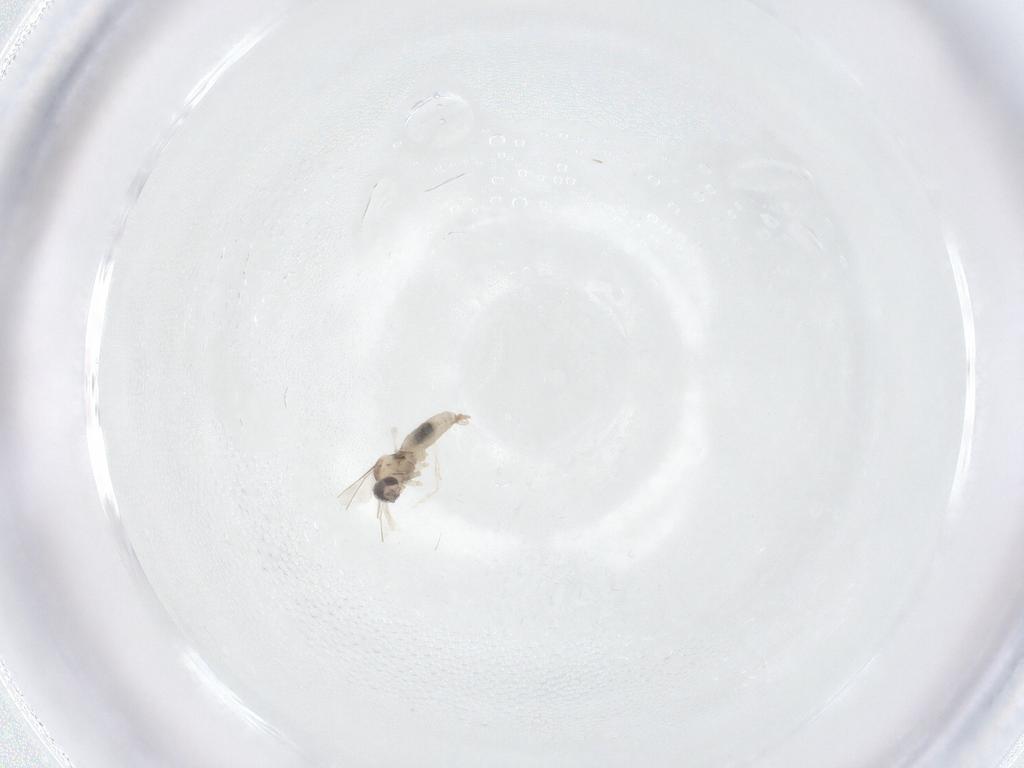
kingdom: Animalia
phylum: Arthropoda
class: Insecta
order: Diptera
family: Cecidomyiidae
